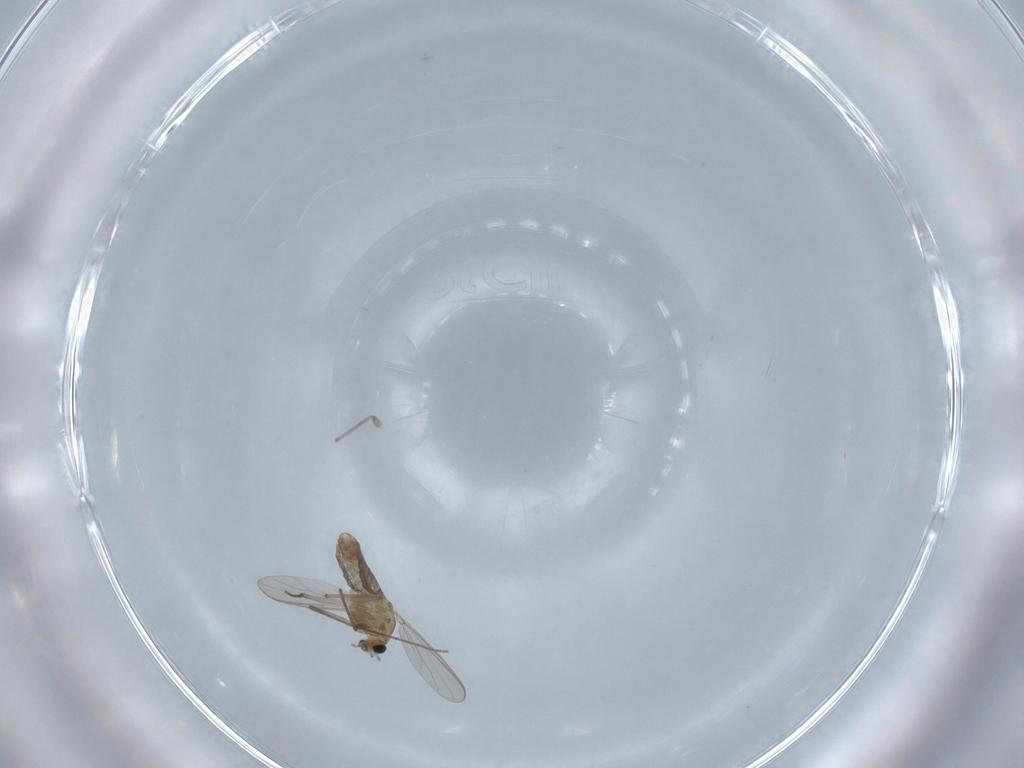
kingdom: Animalia
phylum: Arthropoda
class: Insecta
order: Diptera
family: Chironomidae
